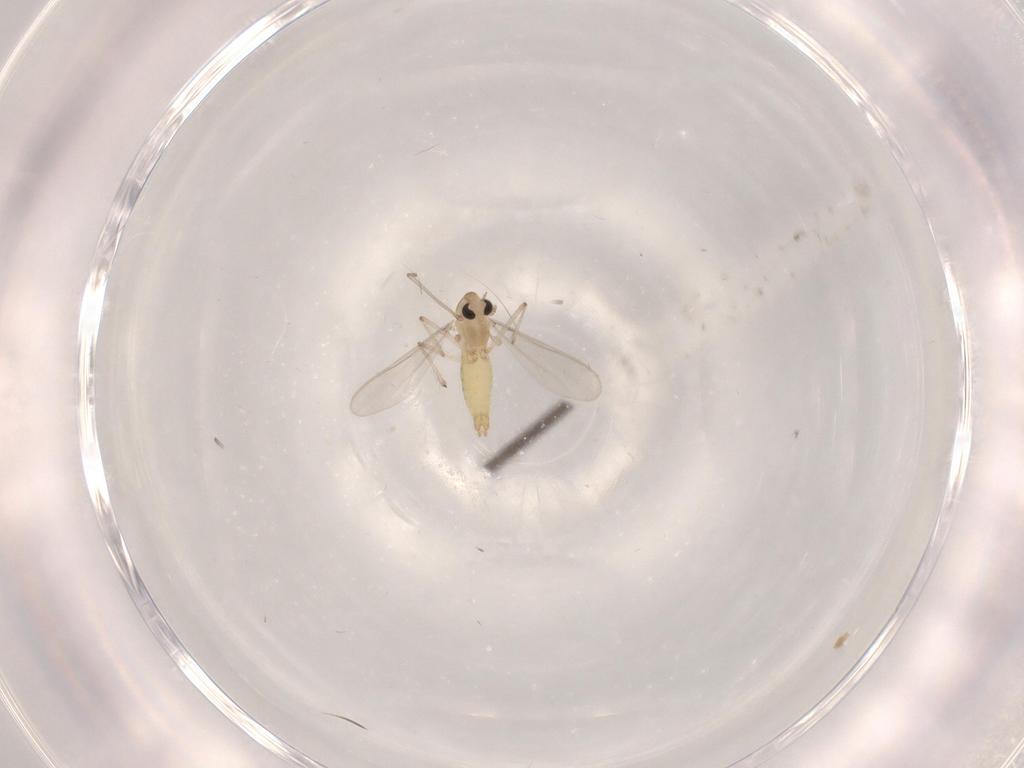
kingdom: Animalia
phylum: Arthropoda
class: Insecta
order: Diptera
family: Chironomidae
